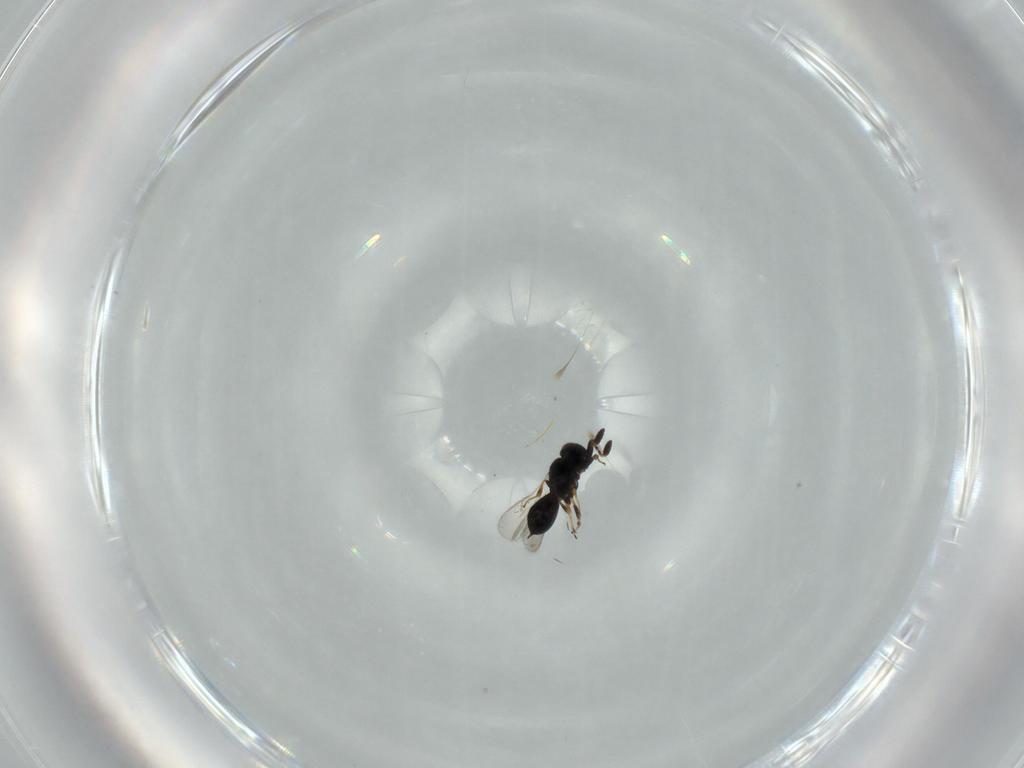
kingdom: Animalia
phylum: Arthropoda
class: Insecta
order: Hymenoptera
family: Scelionidae
